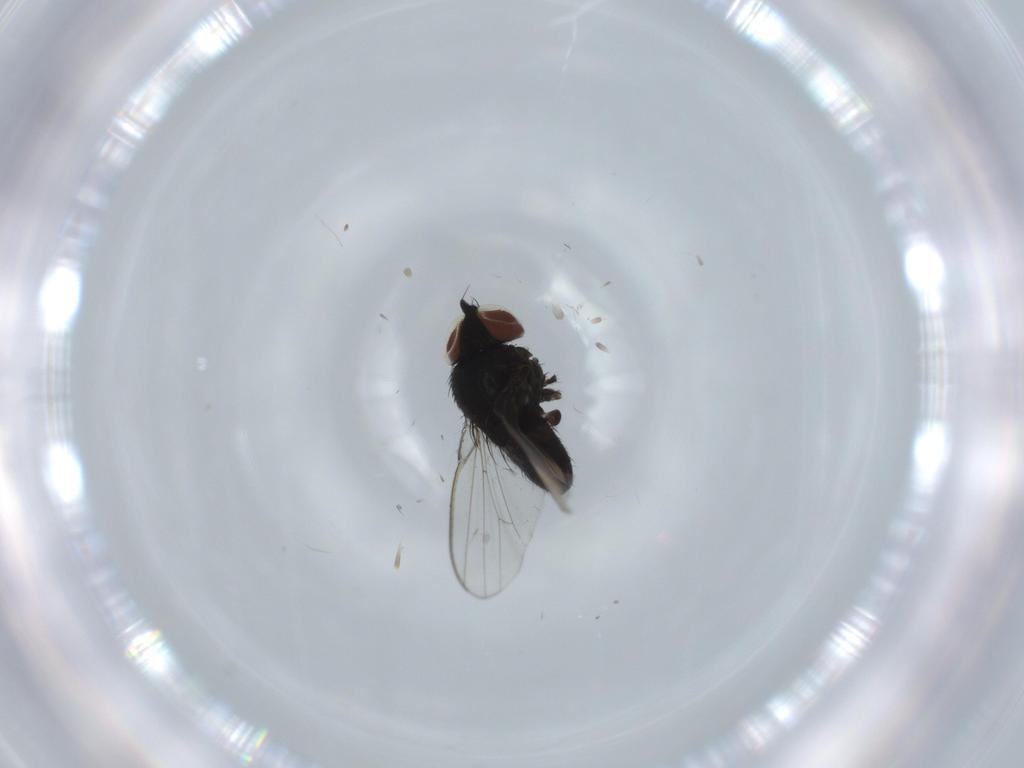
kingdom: Animalia
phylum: Arthropoda
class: Insecta
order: Diptera
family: Milichiidae
